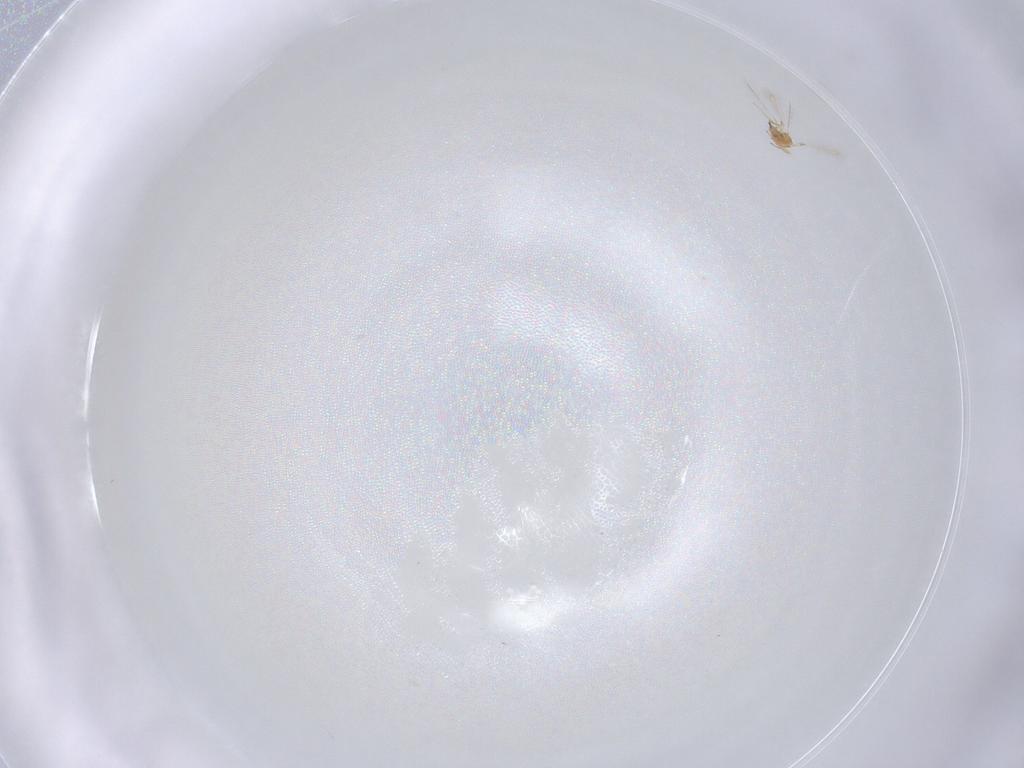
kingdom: Animalia
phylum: Arthropoda
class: Insecta
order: Hymenoptera
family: Mymaridae
